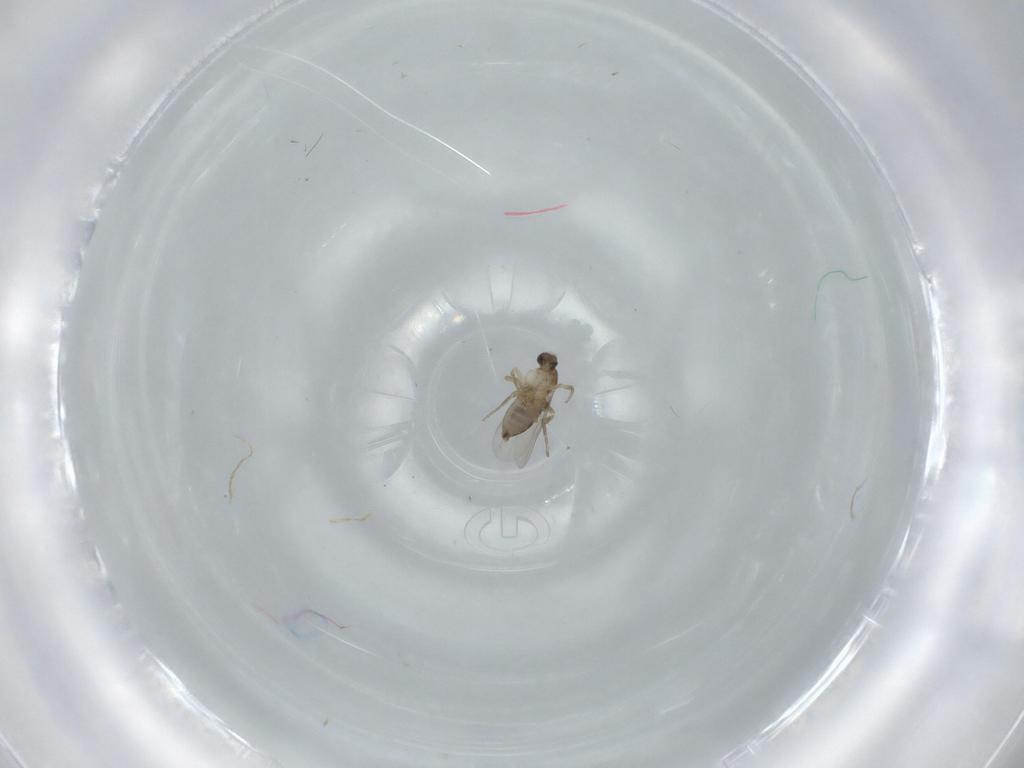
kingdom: Animalia
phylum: Arthropoda
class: Insecta
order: Diptera
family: Phoridae
